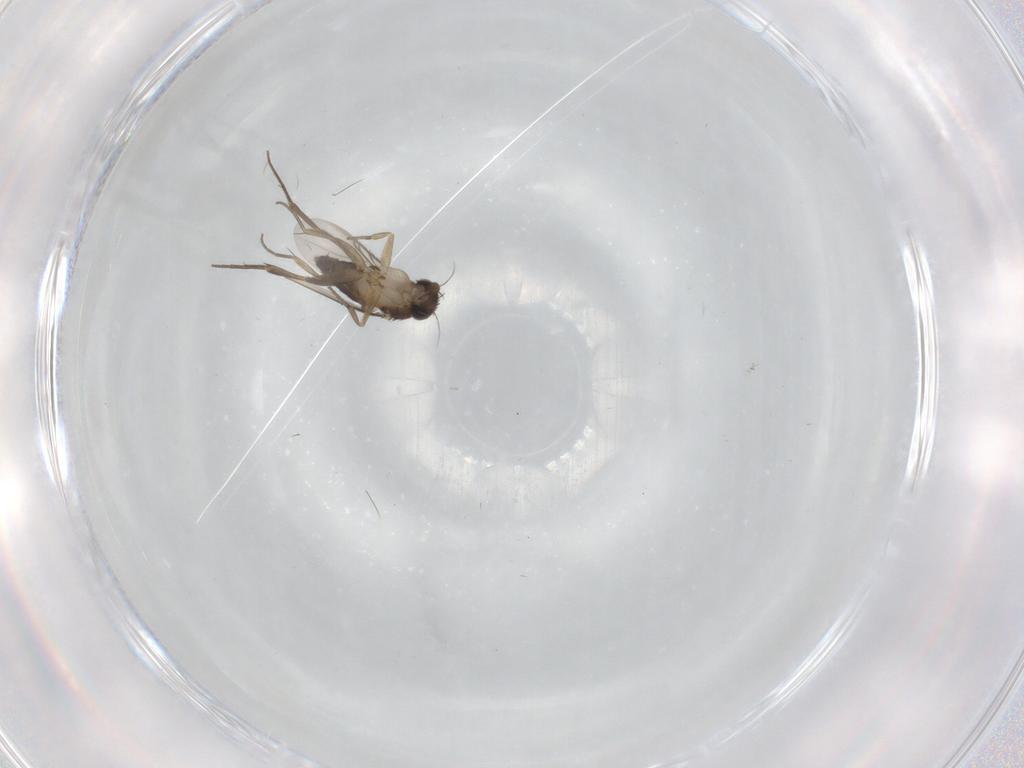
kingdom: Animalia
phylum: Arthropoda
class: Insecta
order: Diptera
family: Phoridae
